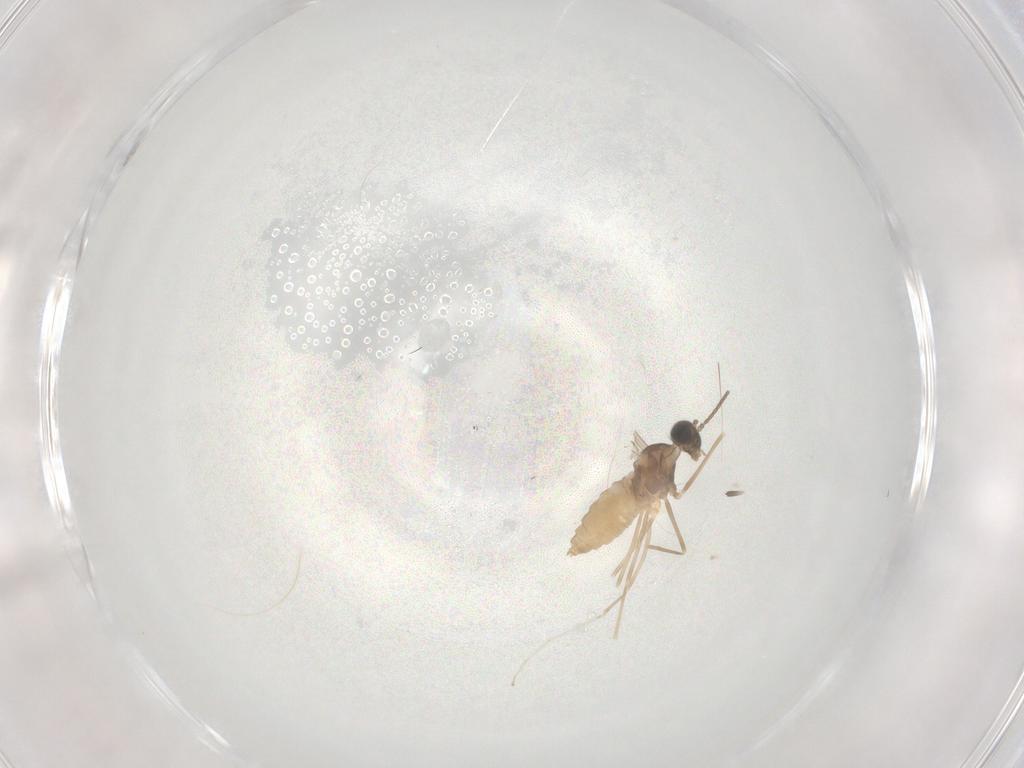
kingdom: Animalia
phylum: Arthropoda
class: Insecta
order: Diptera
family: Cecidomyiidae
